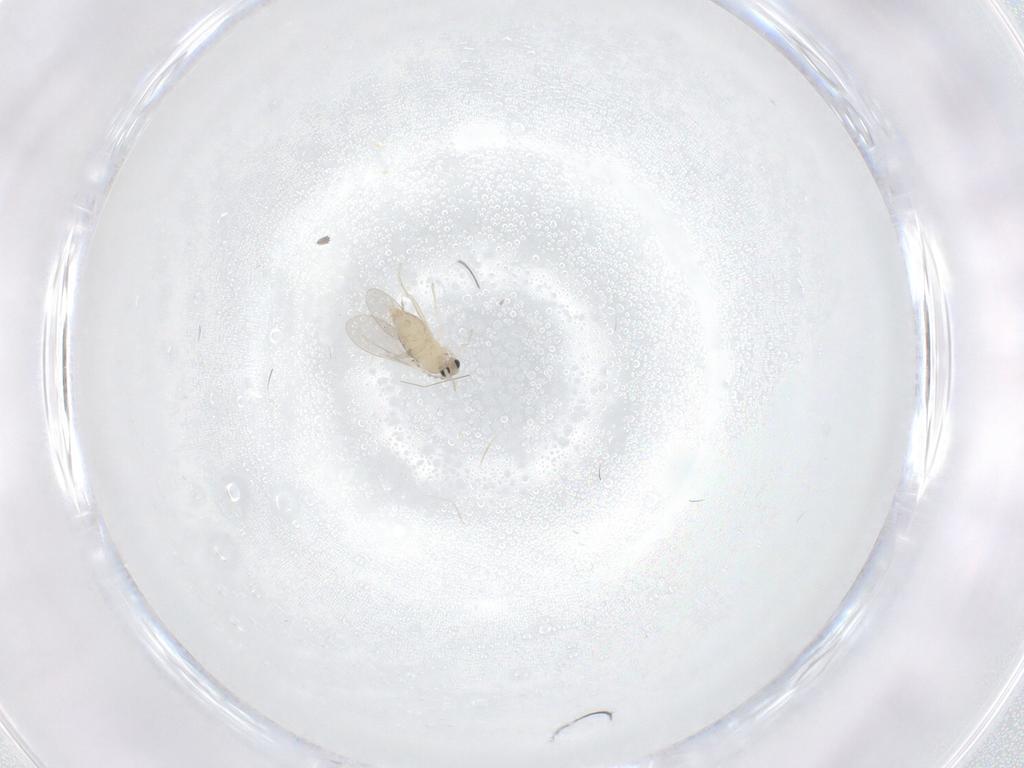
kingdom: Animalia
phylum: Arthropoda
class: Insecta
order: Diptera
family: Cecidomyiidae
